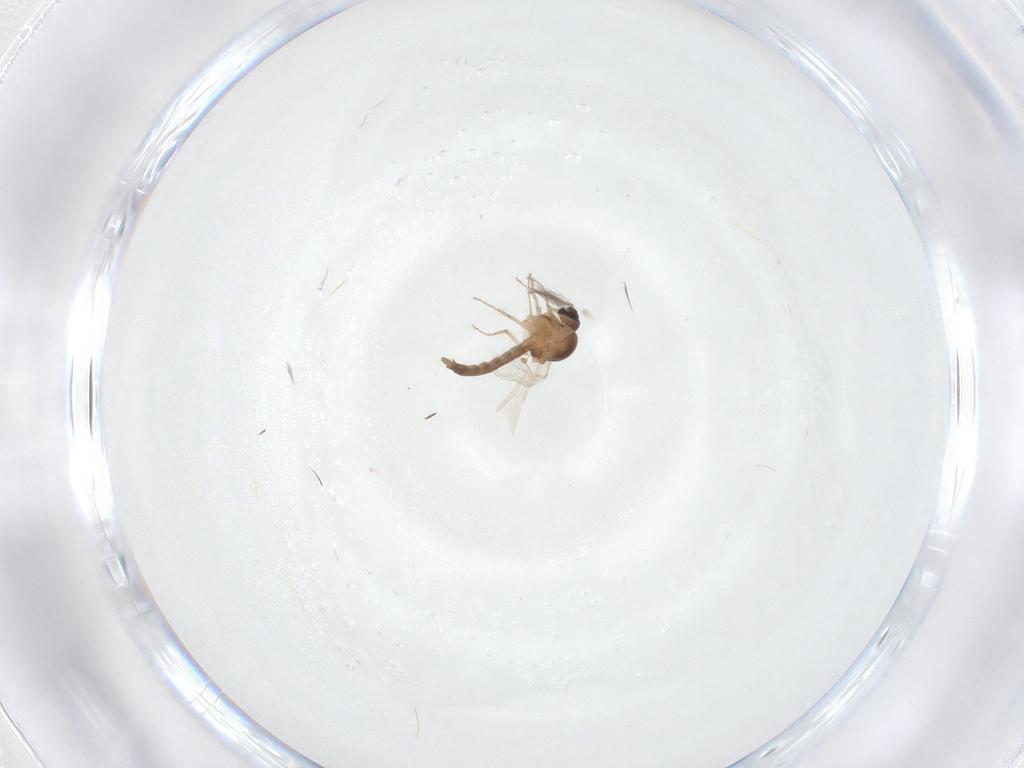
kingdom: Animalia
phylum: Arthropoda
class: Insecta
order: Diptera
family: Ceratopogonidae
